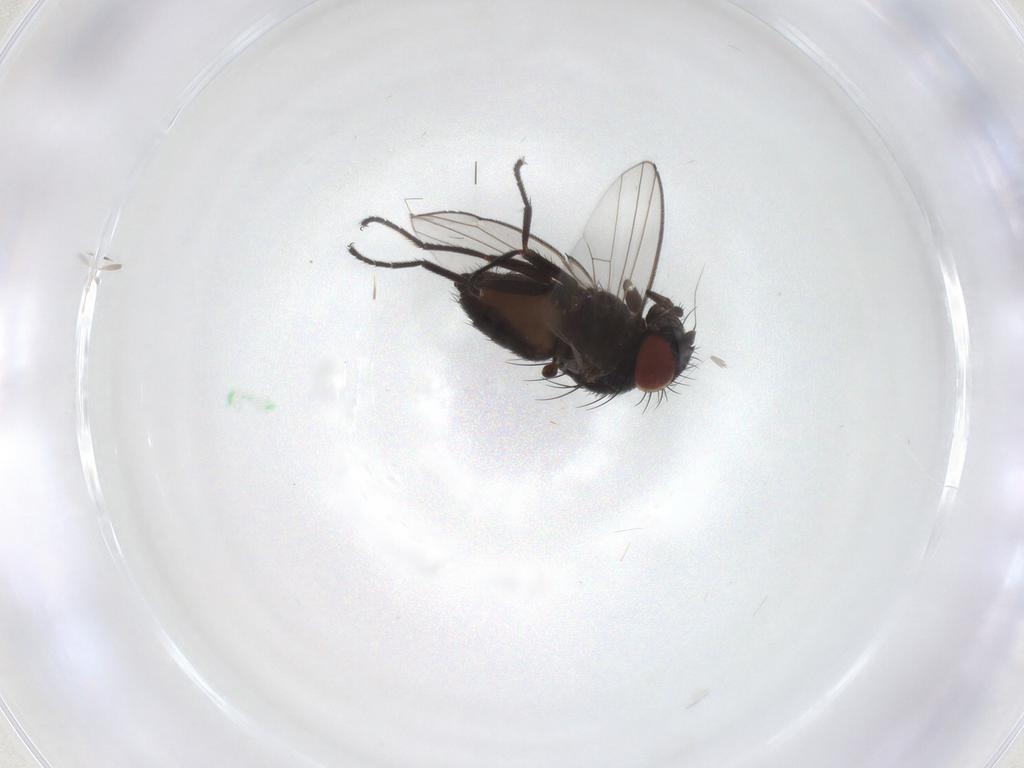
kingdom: Animalia
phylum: Arthropoda
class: Insecta
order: Diptera
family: Milichiidae
